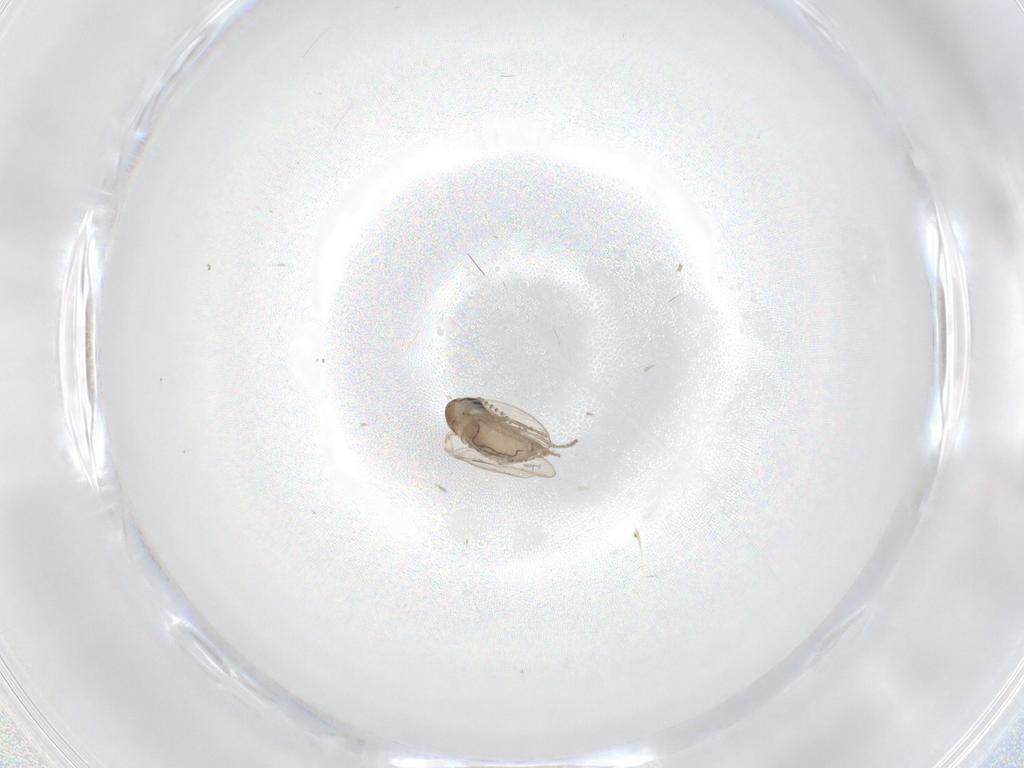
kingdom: Animalia
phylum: Arthropoda
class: Insecta
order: Diptera
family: Psychodidae
